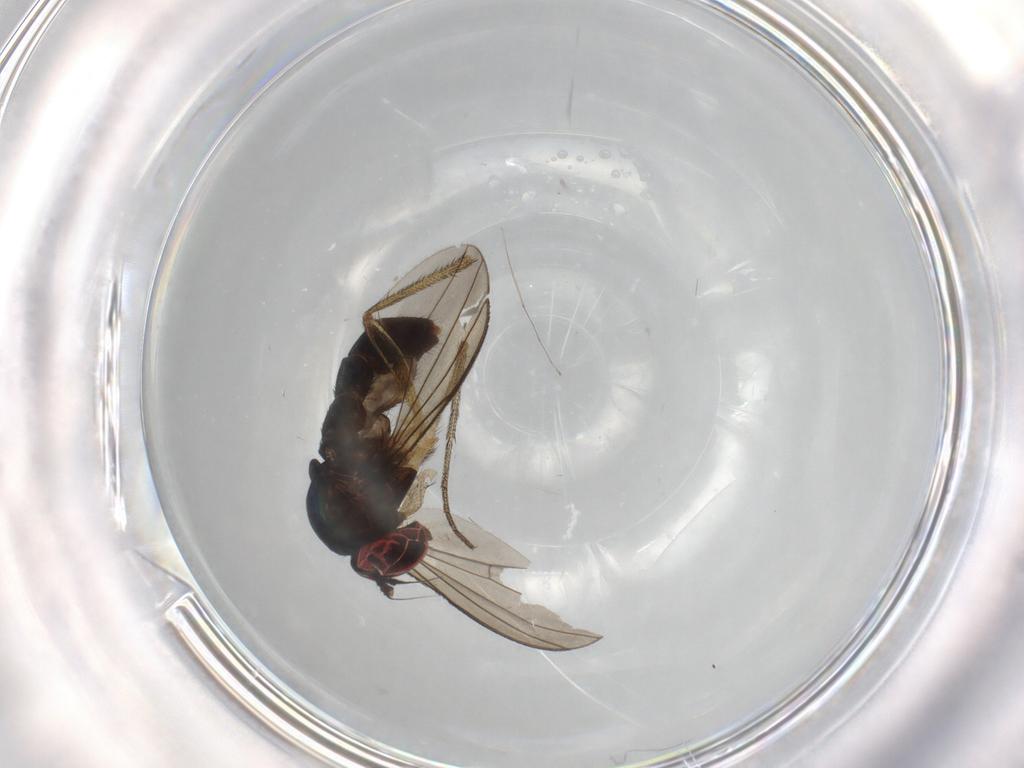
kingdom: Animalia
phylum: Arthropoda
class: Insecta
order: Diptera
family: Dolichopodidae
